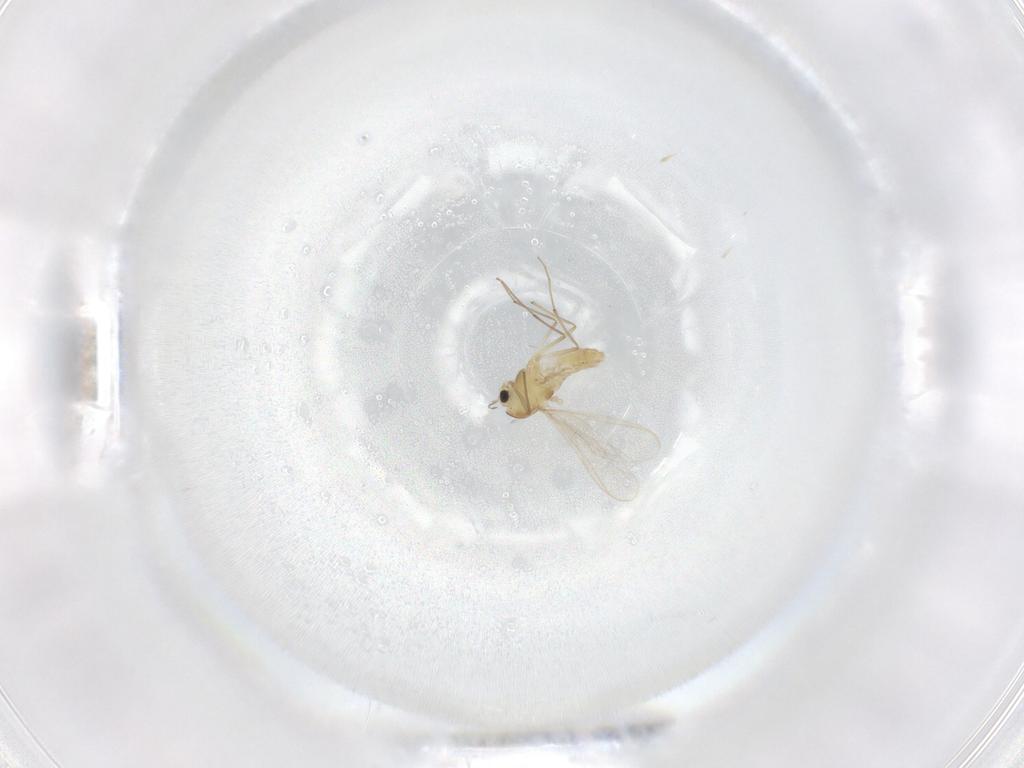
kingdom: Animalia
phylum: Arthropoda
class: Insecta
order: Diptera
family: Chironomidae
